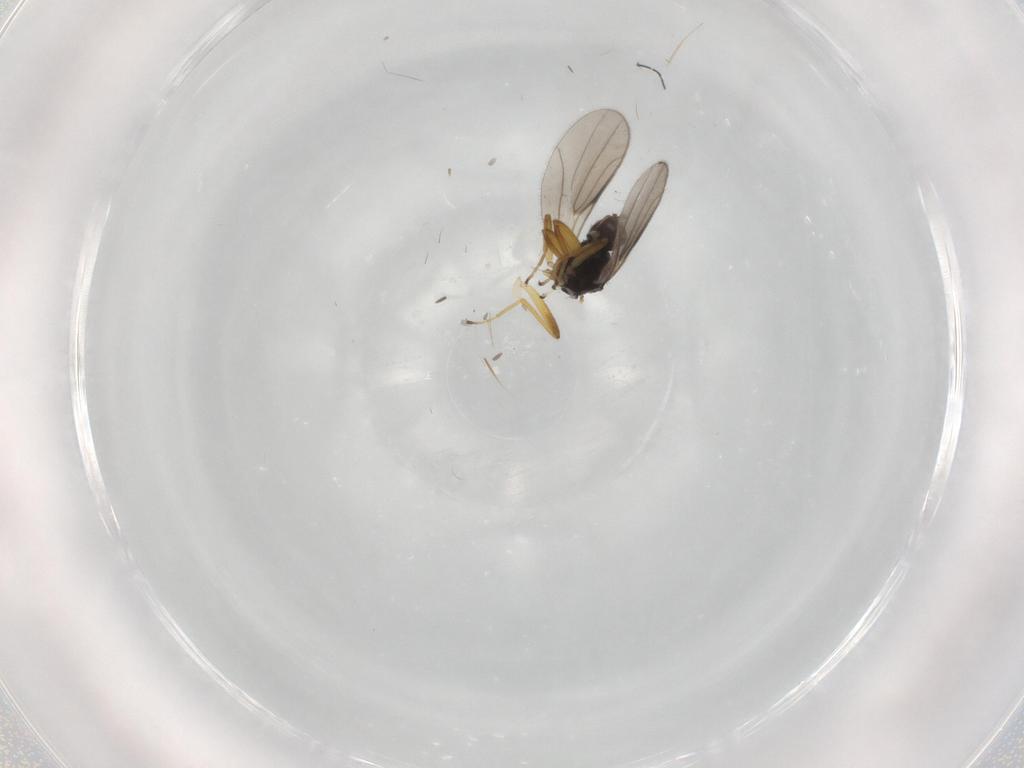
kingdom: Animalia
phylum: Arthropoda
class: Insecta
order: Diptera
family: Hybotidae
